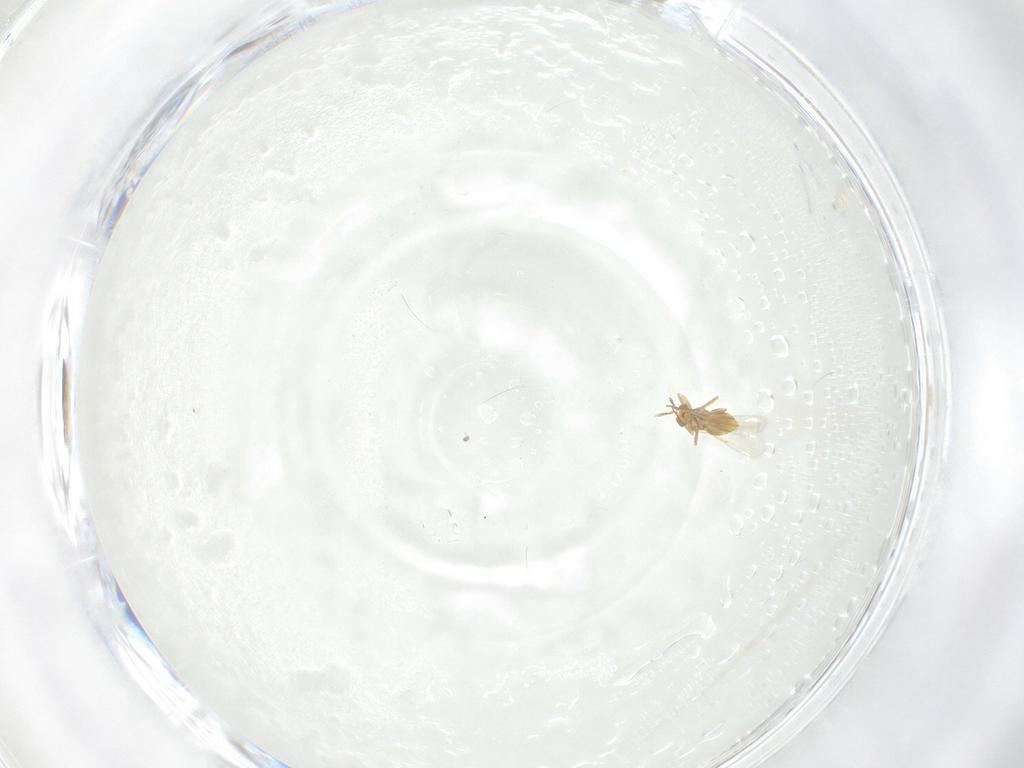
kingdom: Animalia
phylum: Arthropoda
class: Insecta
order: Hymenoptera
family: Aphelinidae
